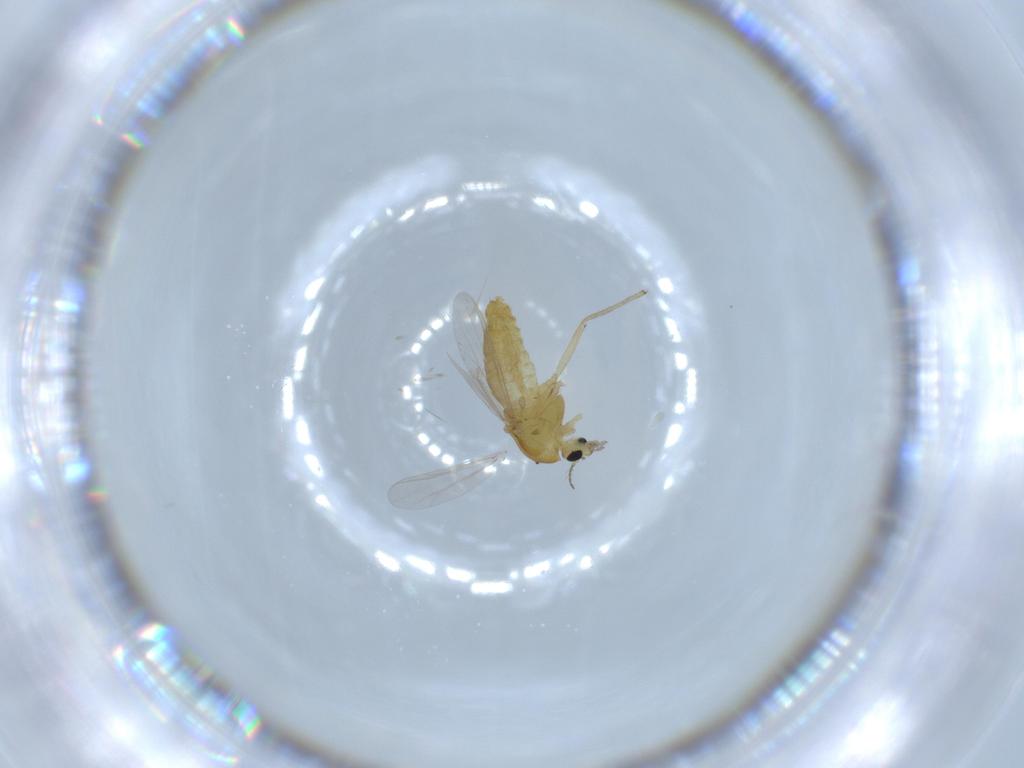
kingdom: Animalia
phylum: Arthropoda
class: Insecta
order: Diptera
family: Chironomidae
